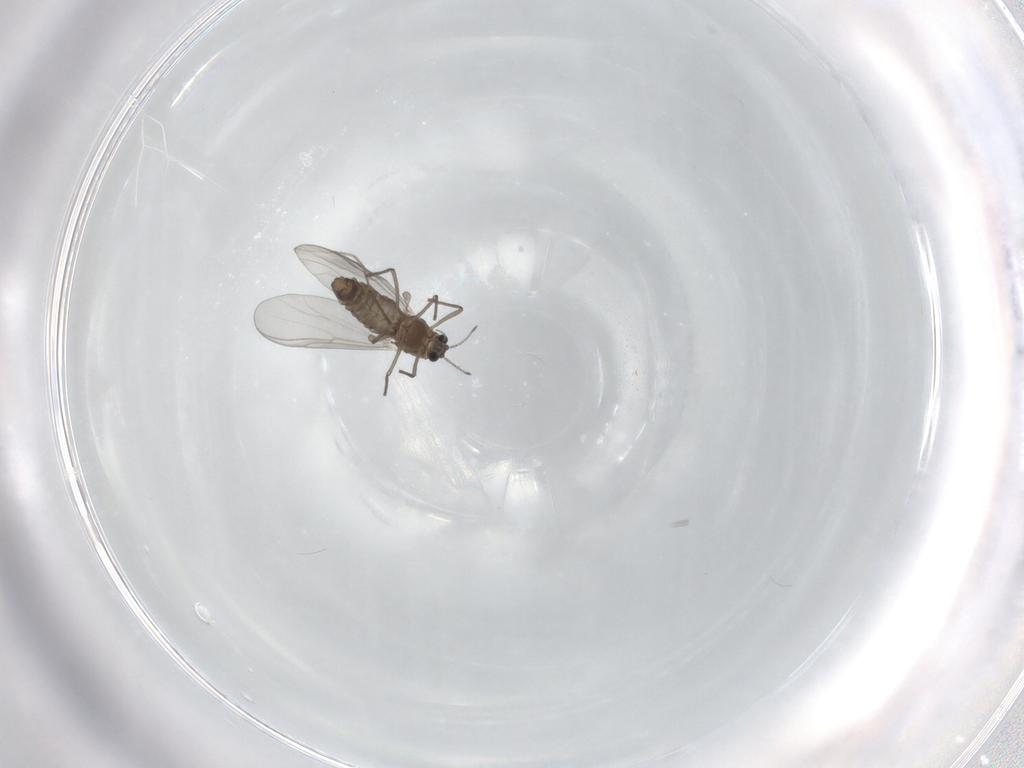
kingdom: Animalia
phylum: Arthropoda
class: Insecta
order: Diptera
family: Chironomidae
